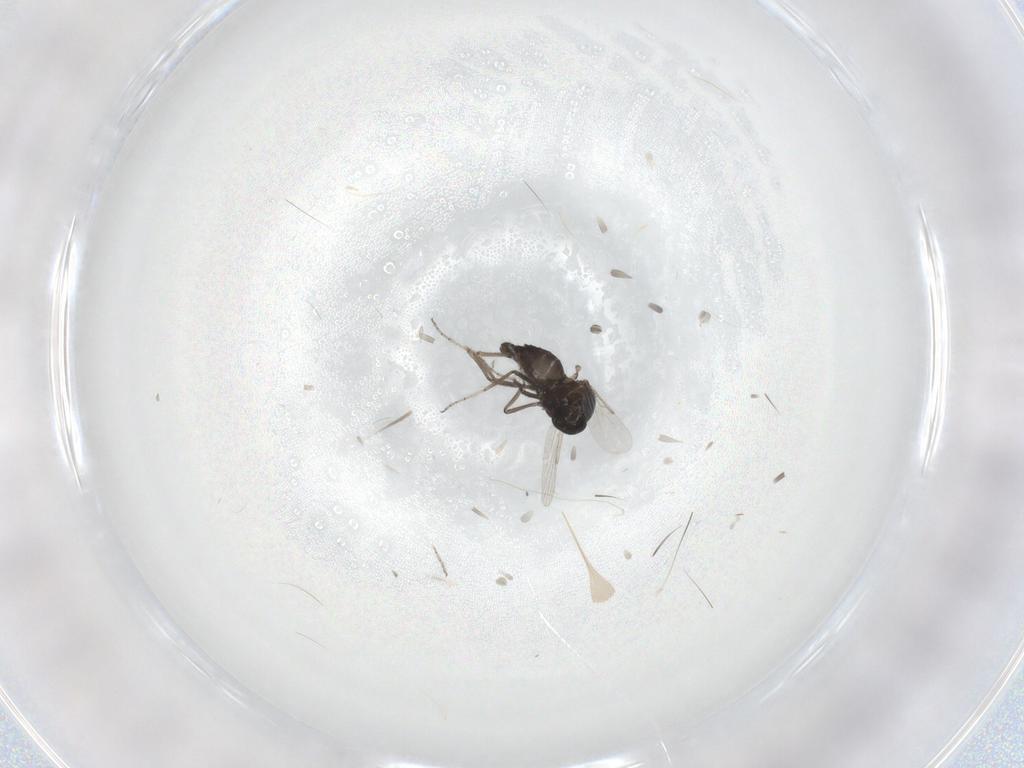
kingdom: Animalia
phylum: Arthropoda
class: Insecta
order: Diptera
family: Ceratopogonidae
